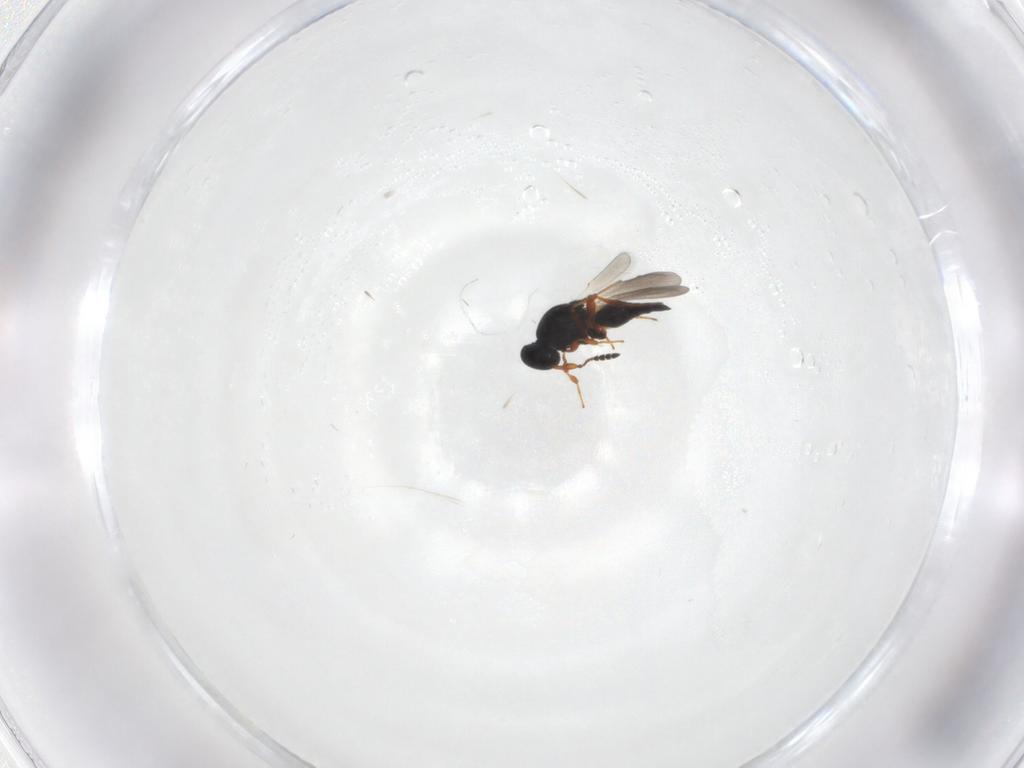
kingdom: Animalia
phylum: Arthropoda
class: Insecta
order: Hymenoptera
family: Platygastridae
